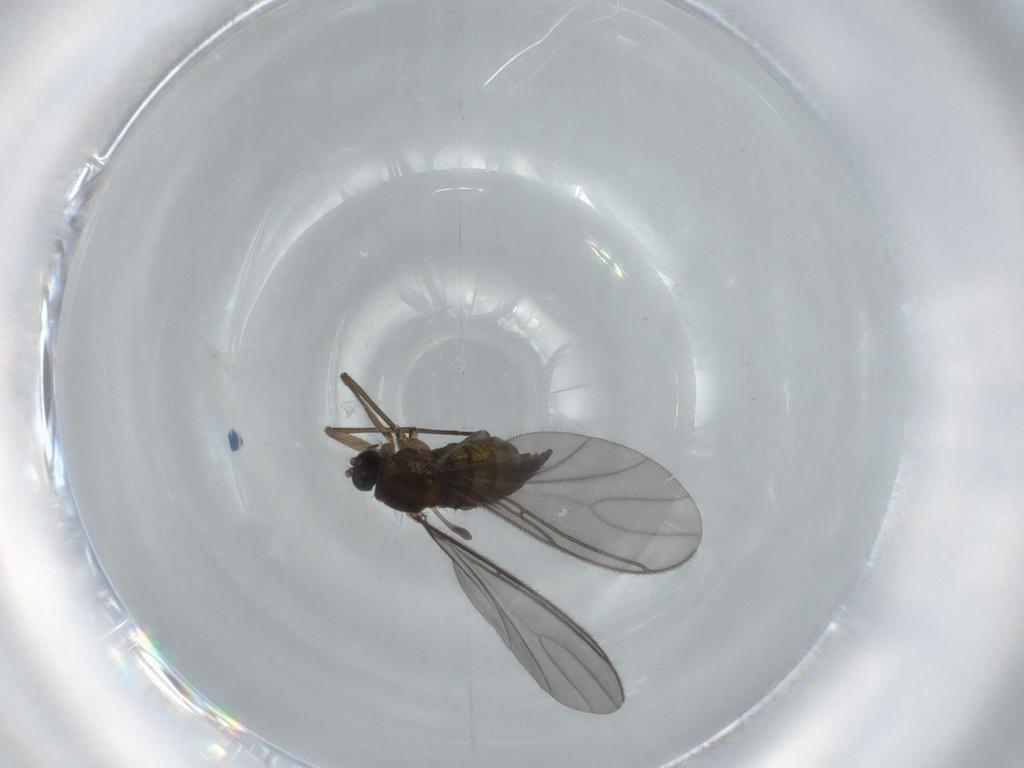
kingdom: Animalia
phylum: Arthropoda
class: Insecta
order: Diptera
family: Sciaridae
